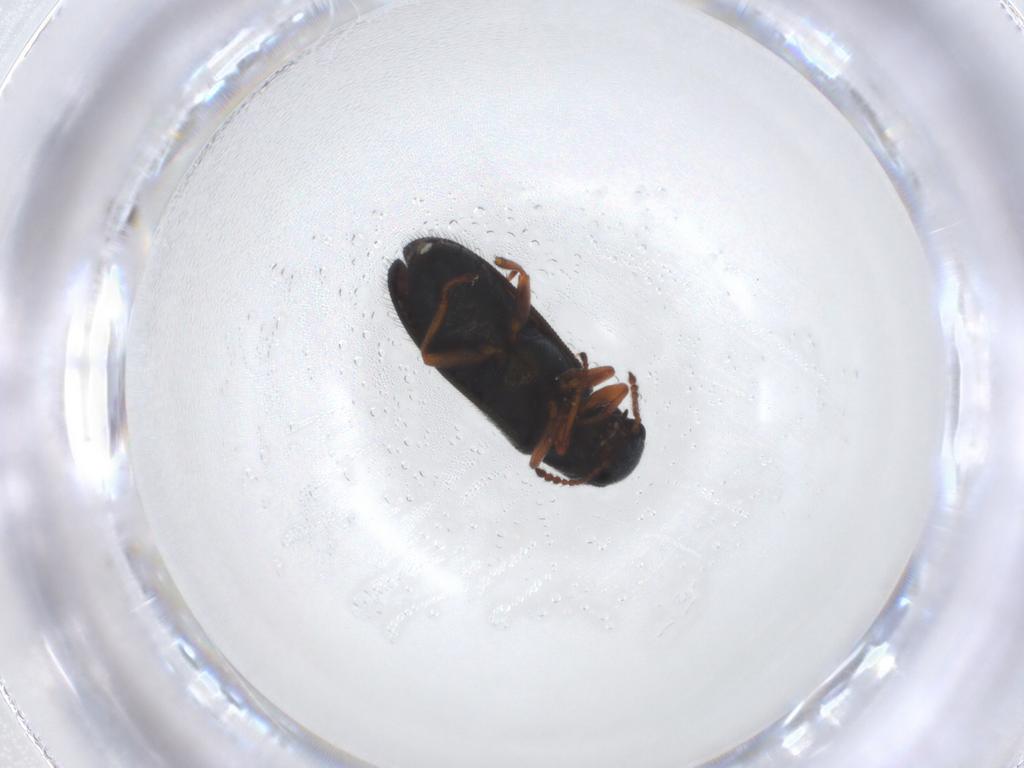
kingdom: Animalia
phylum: Arthropoda
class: Insecta
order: Coleoptera
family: Melyridae
